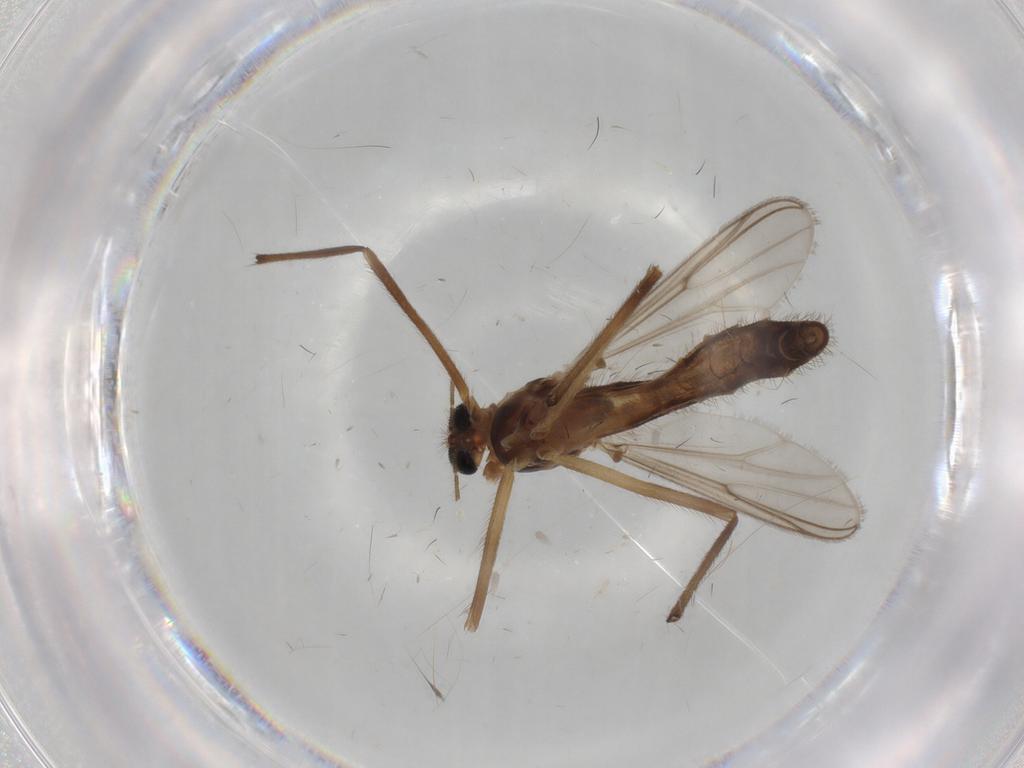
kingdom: Animalia
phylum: Arthropoda
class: Insecta
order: Diptera
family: Chironomidae
